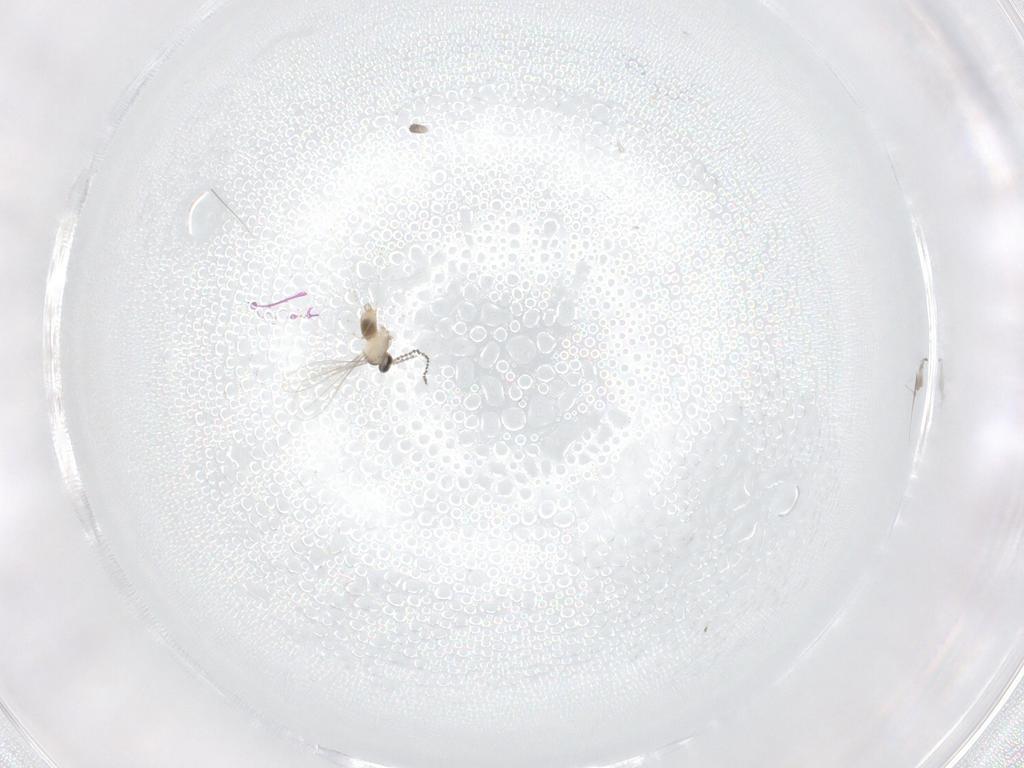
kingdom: Animalia
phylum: Arthropoda
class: Insecta
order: Diptera
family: Cecidomyiidae
